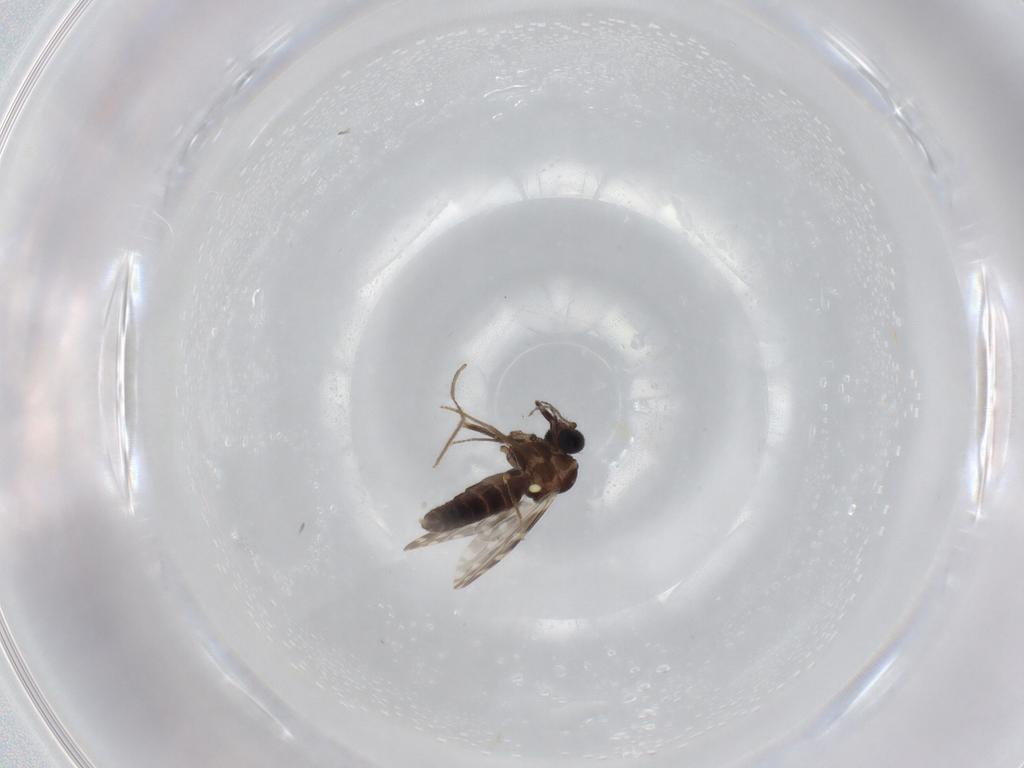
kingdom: Animalia
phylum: Arthropoda
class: Insecta
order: Diptera
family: Ceratopogonidae
